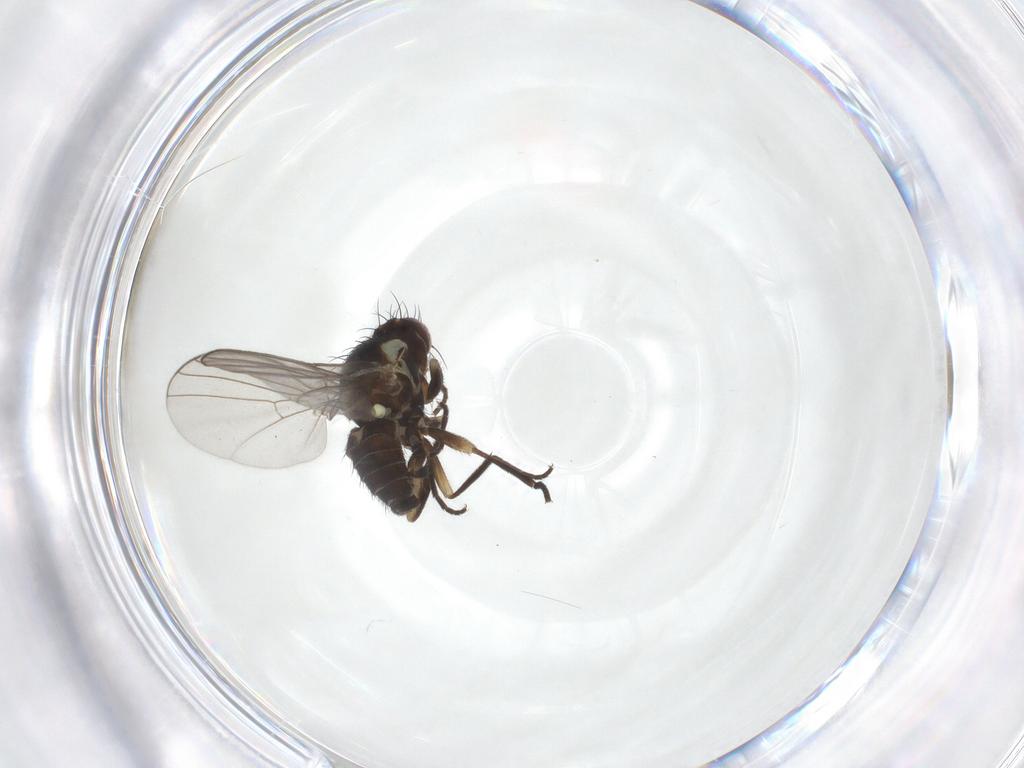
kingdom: Animalia
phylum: Arthropoda
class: Insecta
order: Diptera
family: Agromyzidae
